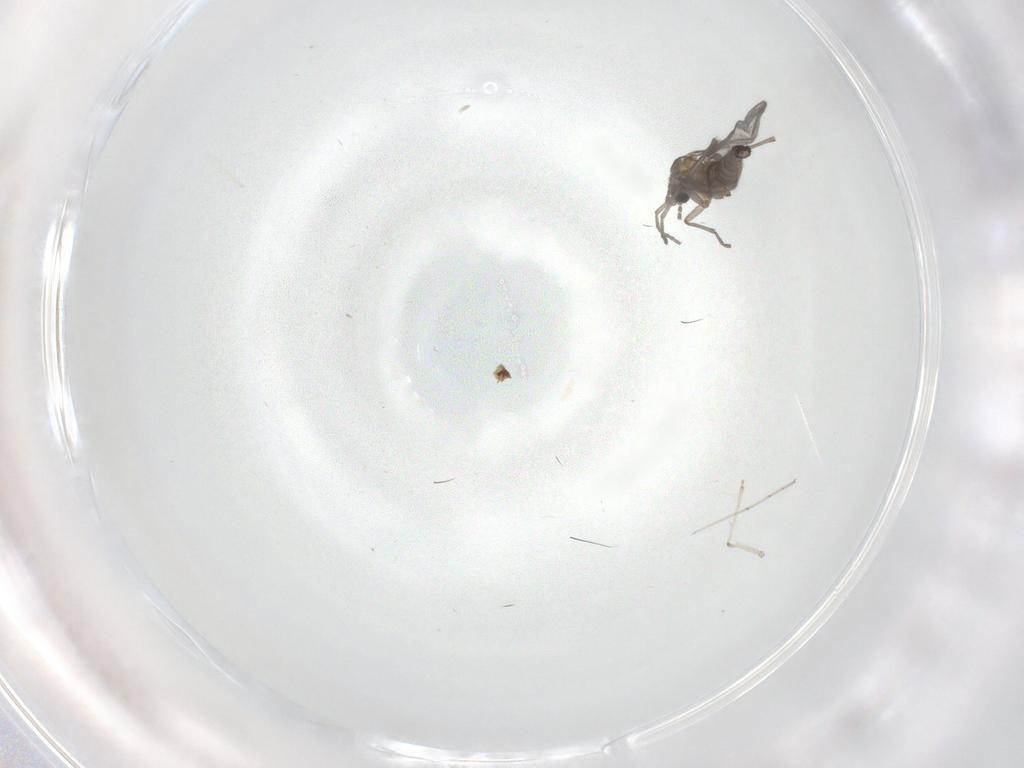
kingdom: Animalia
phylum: Arthropoda
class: Insecta
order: Diptera
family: Sciaridae
